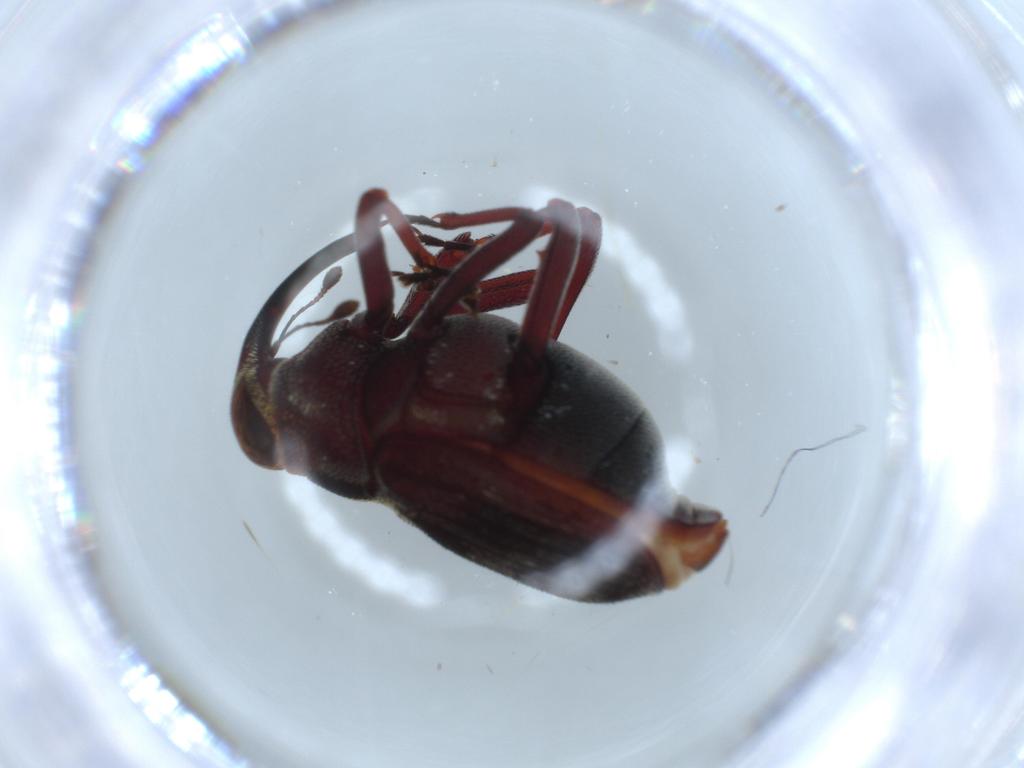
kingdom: Animalia
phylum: Arthropoda
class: Insecta
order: Coleoptera
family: Curculionidae
